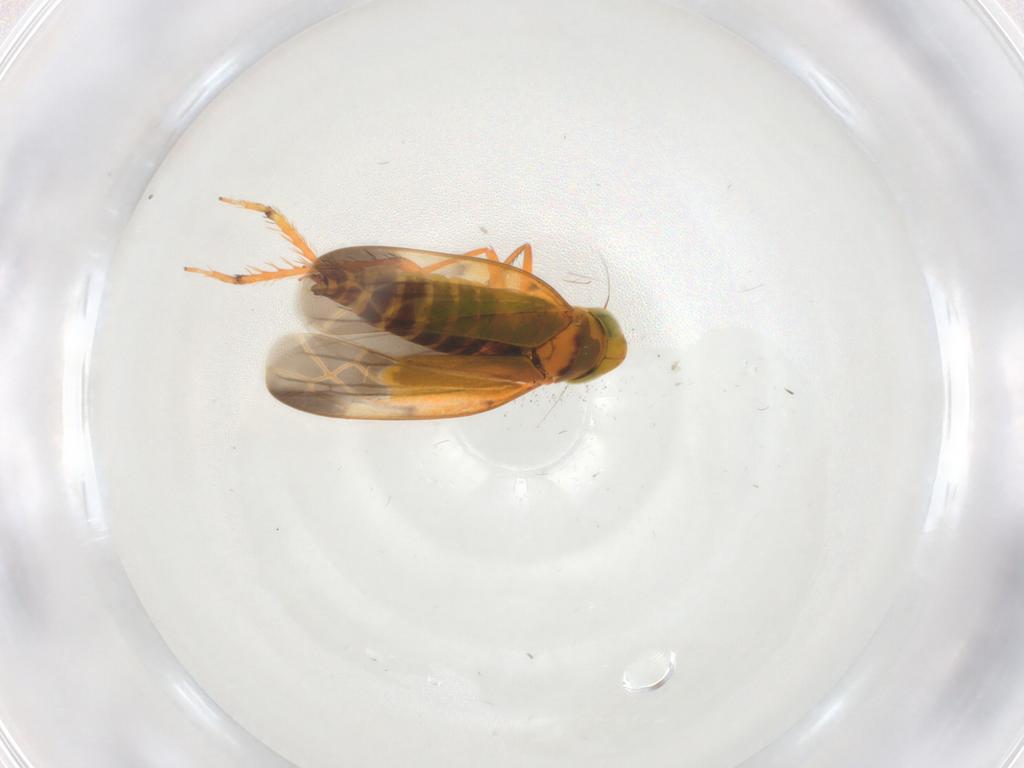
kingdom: Animalia
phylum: Arthropoda
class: Insecta
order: Hemiptera
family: Cicadellidae
